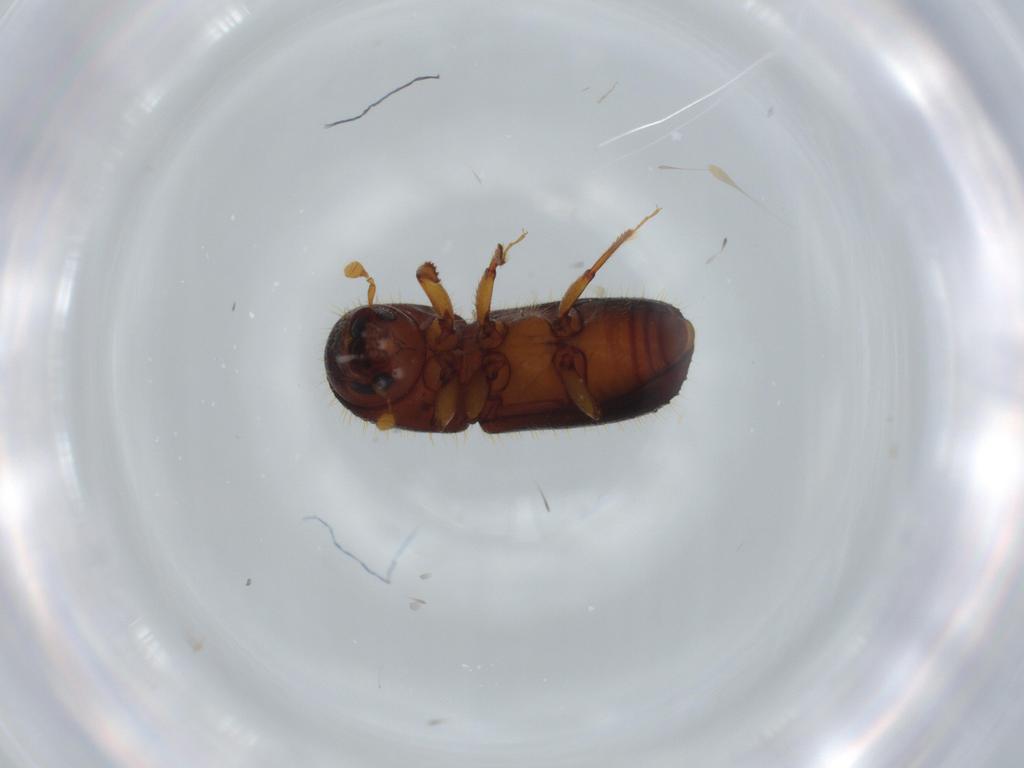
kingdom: Animalia
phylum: Arthropoda
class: Insecta
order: Coleoptera
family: Curculionidae
